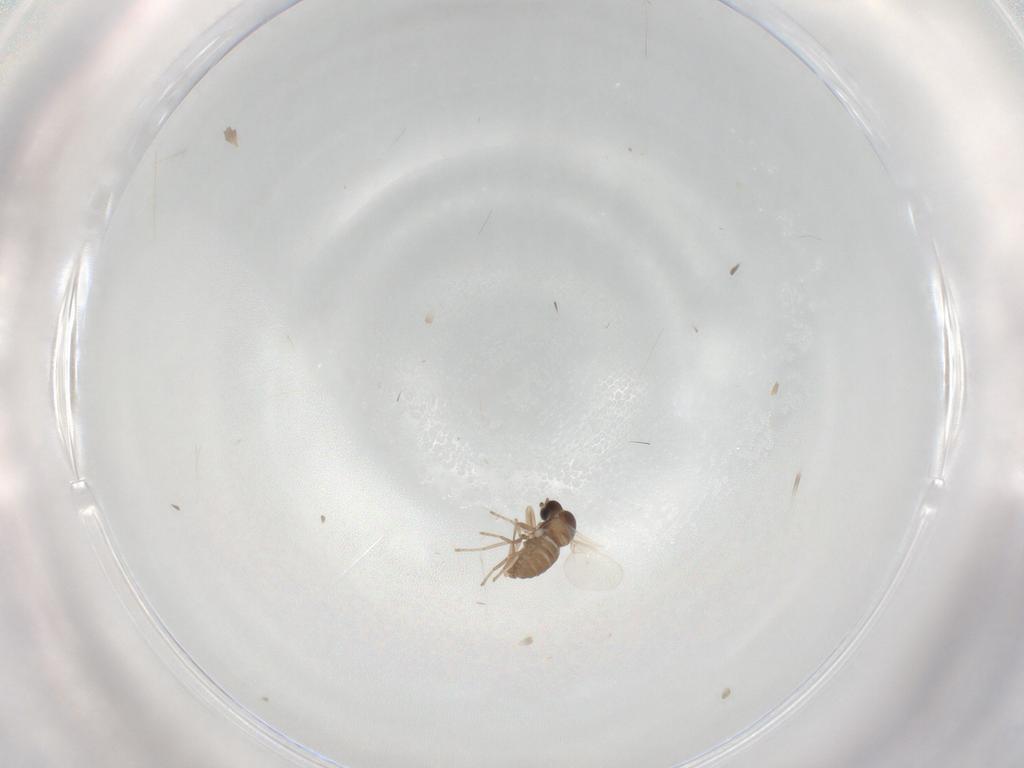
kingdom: Animalia
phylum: Arthropoda
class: Insecta
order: Diptera
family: Cecidomyiidae
